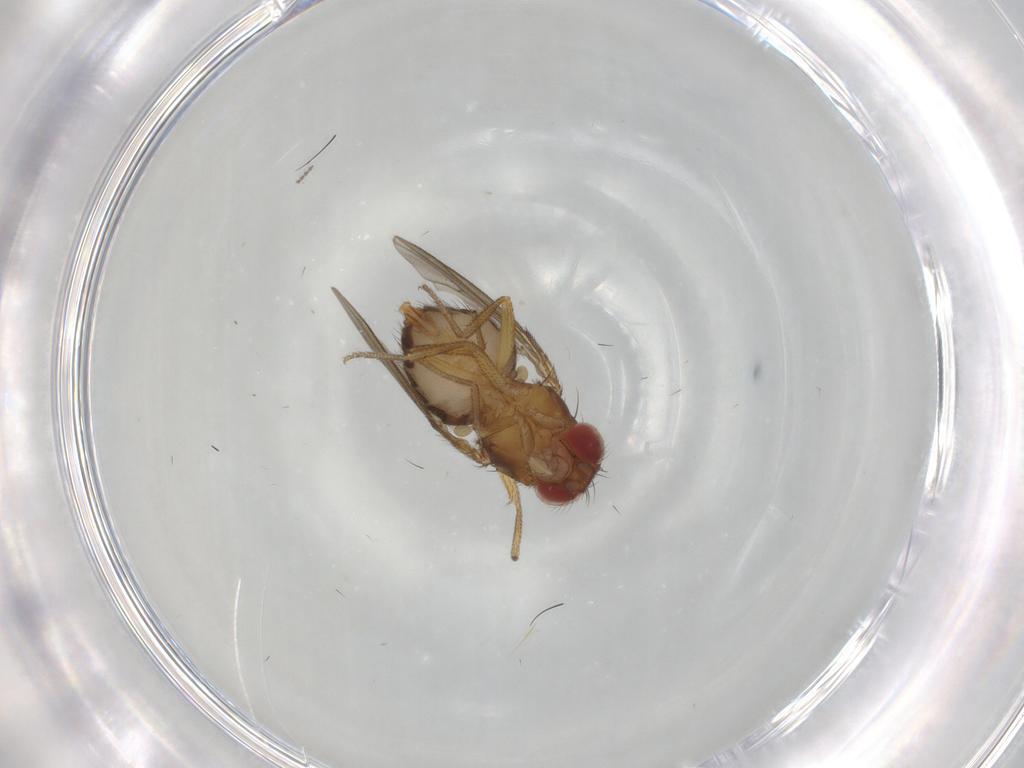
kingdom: Animalia
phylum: Arthropoda
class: Insecta
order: Diptera
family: Drosophilidae
